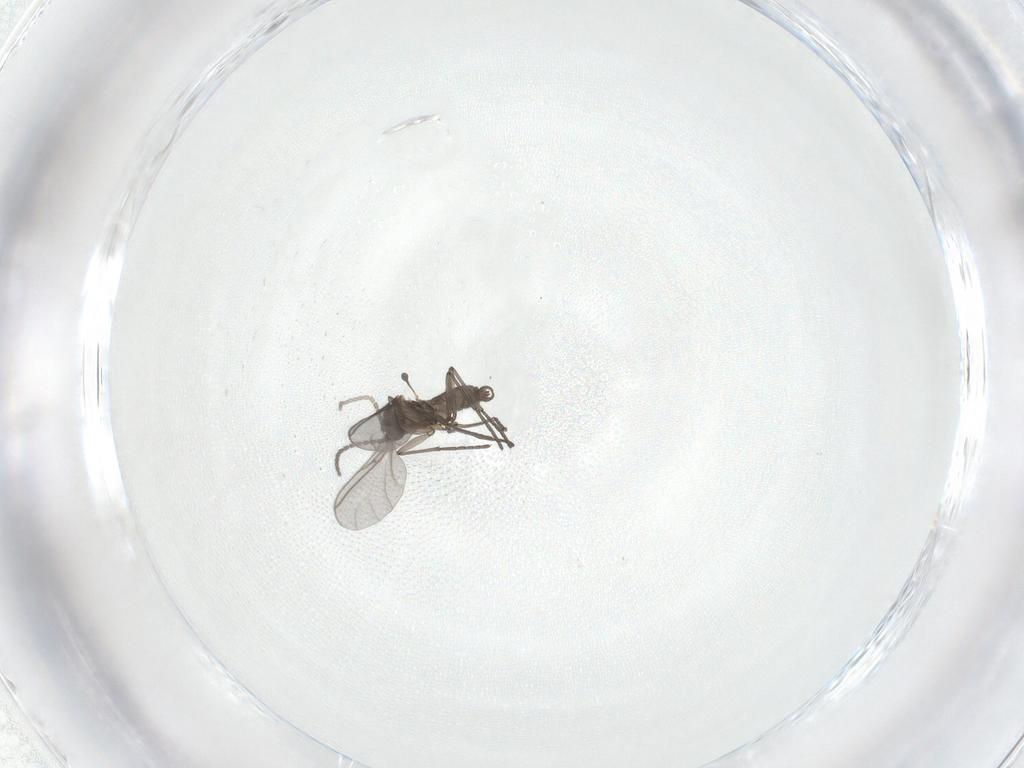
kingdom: Animalia
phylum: Arthropoda
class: Insecta
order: Diptera
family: Sciaridae
